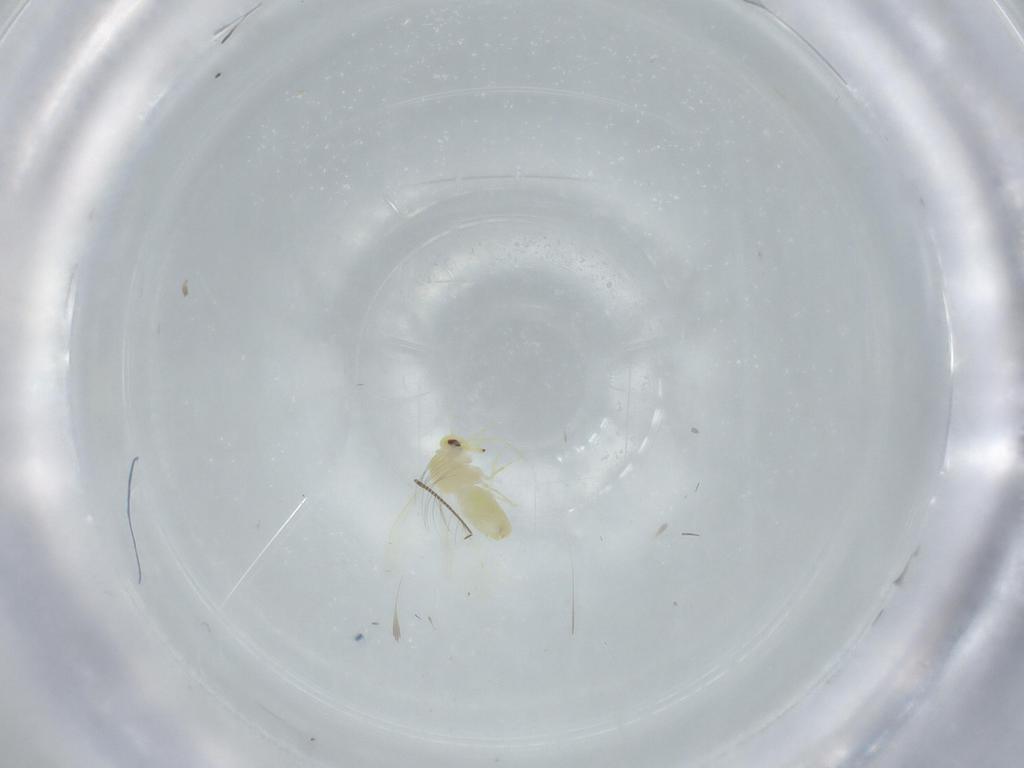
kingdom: Animalia
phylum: Arthropoda
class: Insecta
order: Hemiptera
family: Aleyrodidae
